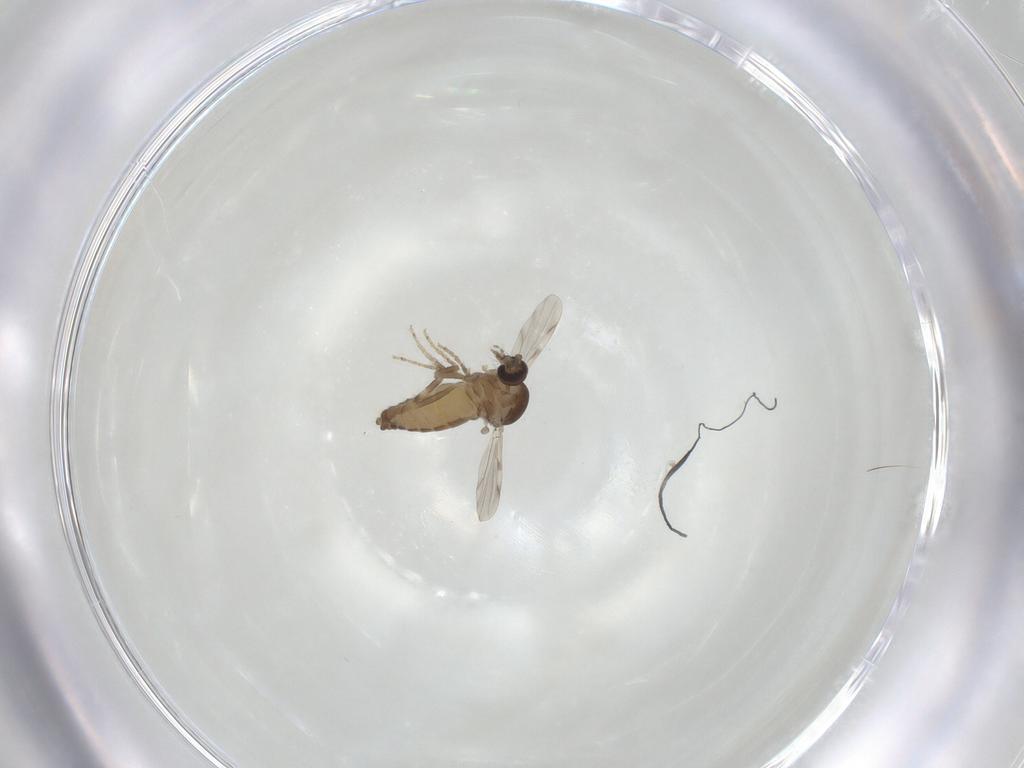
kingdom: Animalia
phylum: Arthropoda
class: Insecta
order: Diptera
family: Ceratopogonidae
